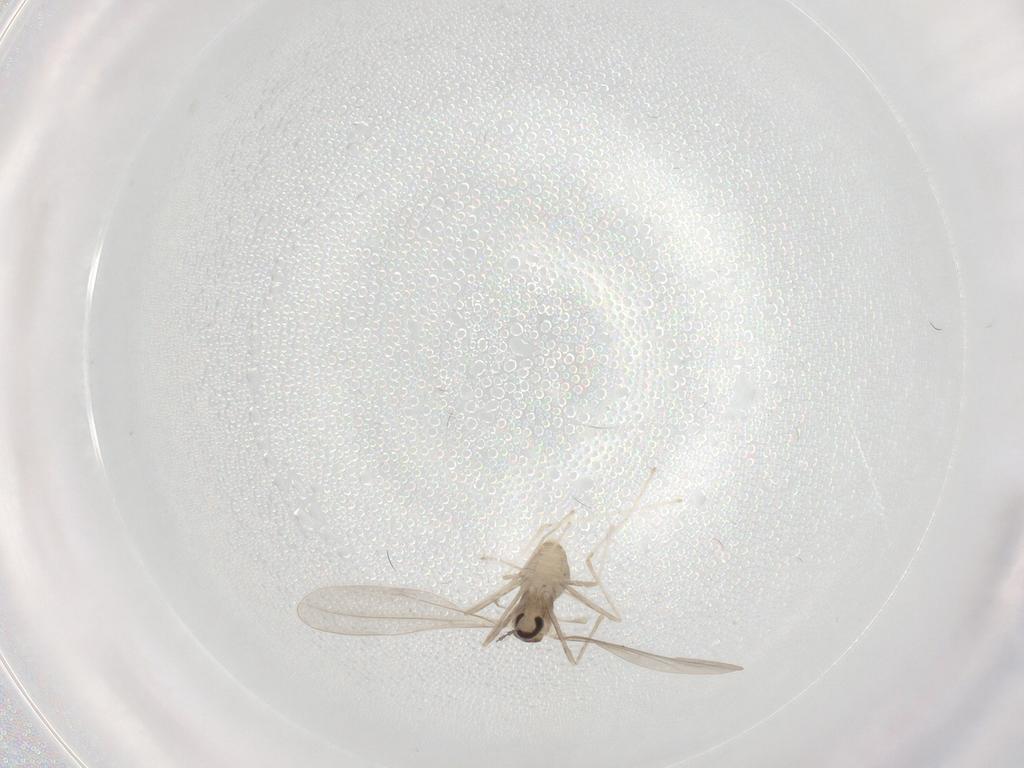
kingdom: Animalia
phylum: Arthropoda
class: Insecta
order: Diptera
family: Cecidomyiidae
